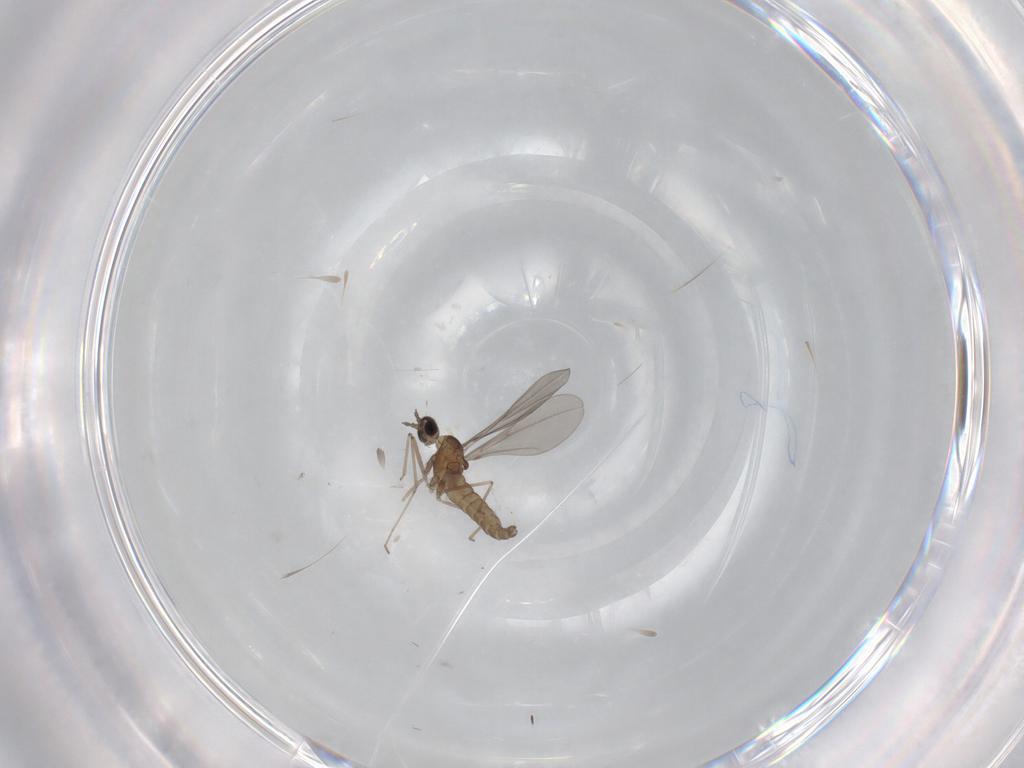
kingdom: Animalia
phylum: Arthropoda
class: Insecta
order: Diptera
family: Cecidomyiidae
